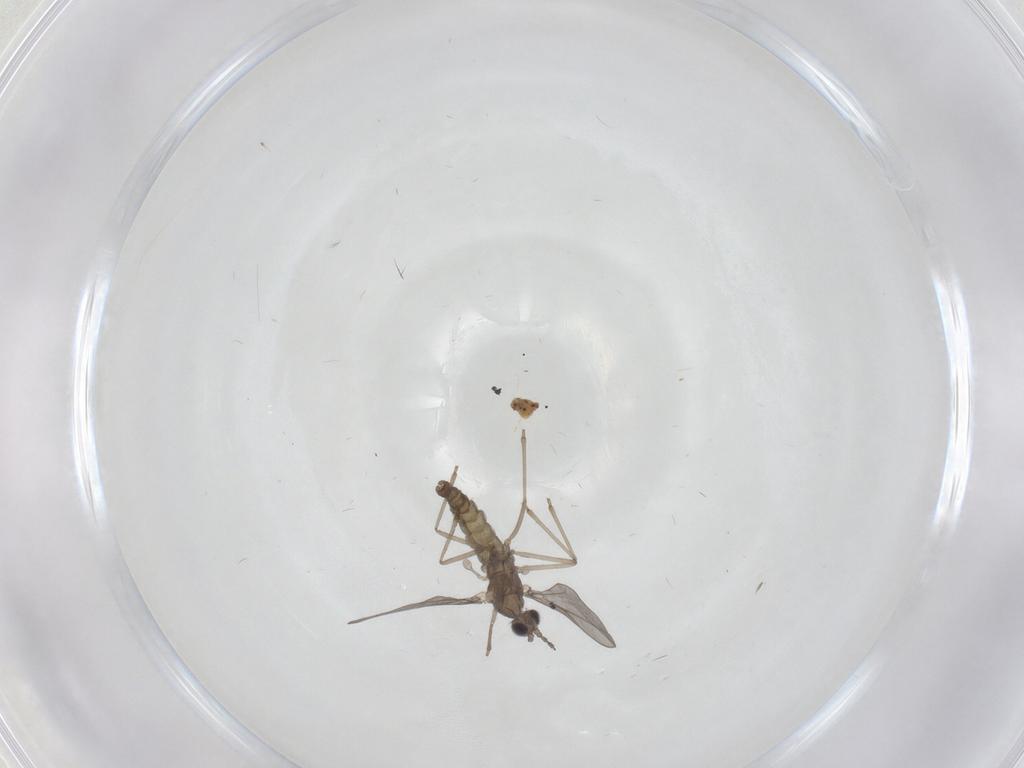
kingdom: Animalia
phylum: Arthropoda
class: Insecta
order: Diptera
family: Cecidomyiidae
